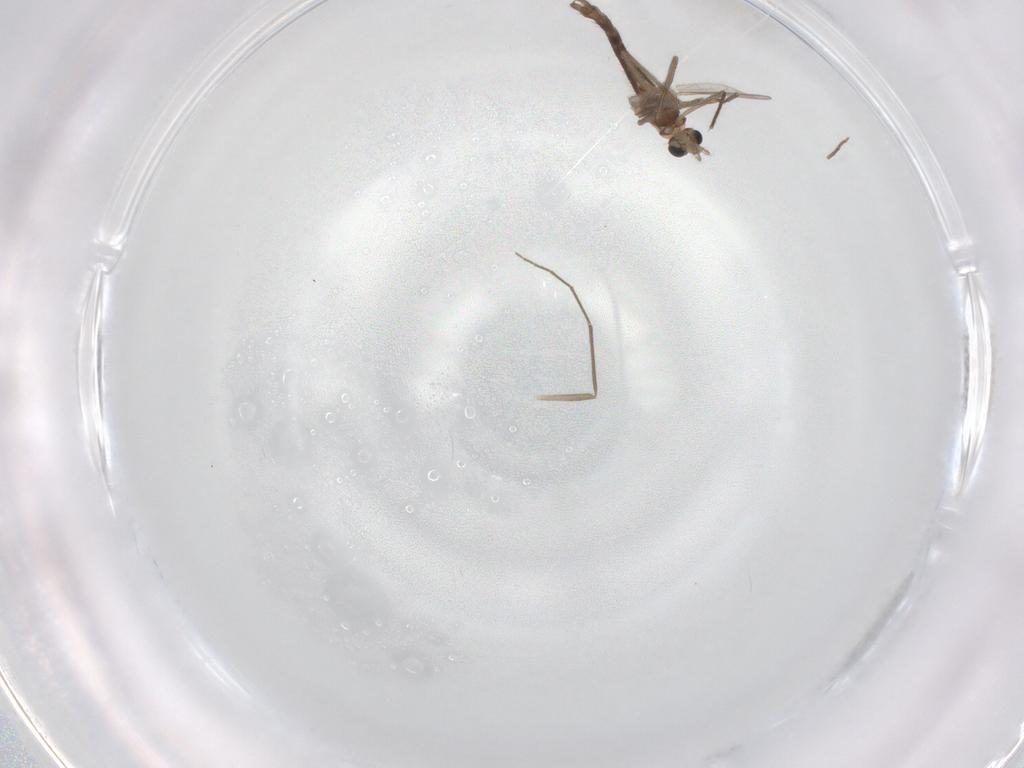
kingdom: Animalia
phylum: Arthropoda
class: Insecta
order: Diptera
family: Chironomidae
